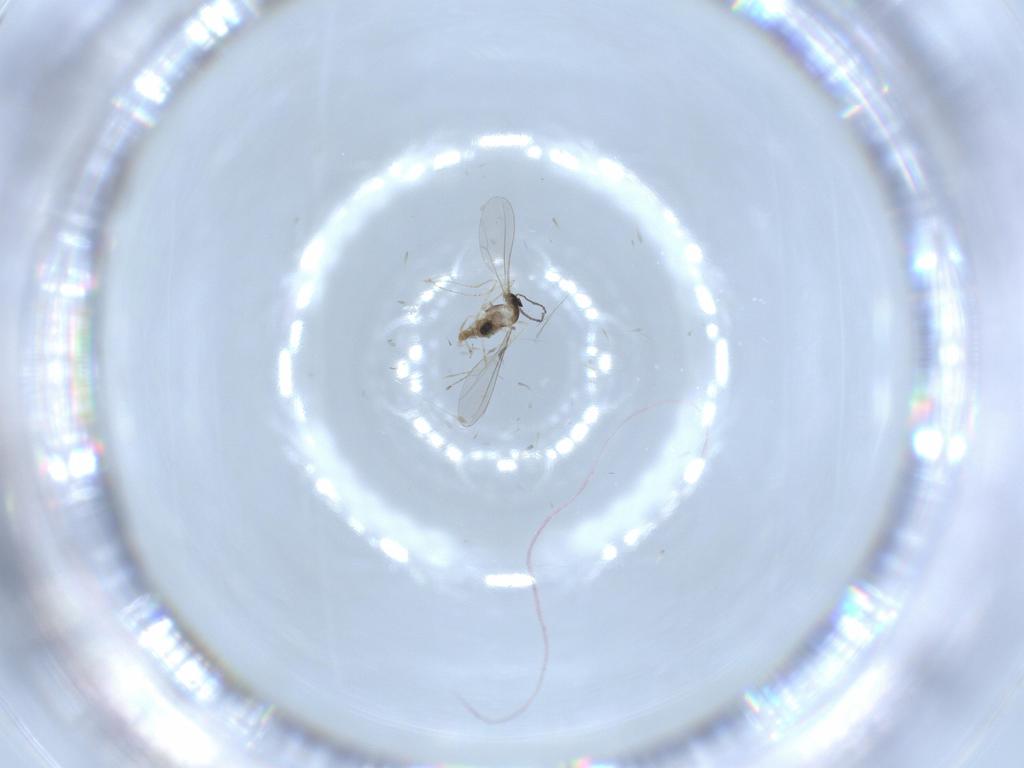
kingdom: Animalia
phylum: Arthropoda
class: Insecta
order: Diptera
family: Cecidomyiidae
